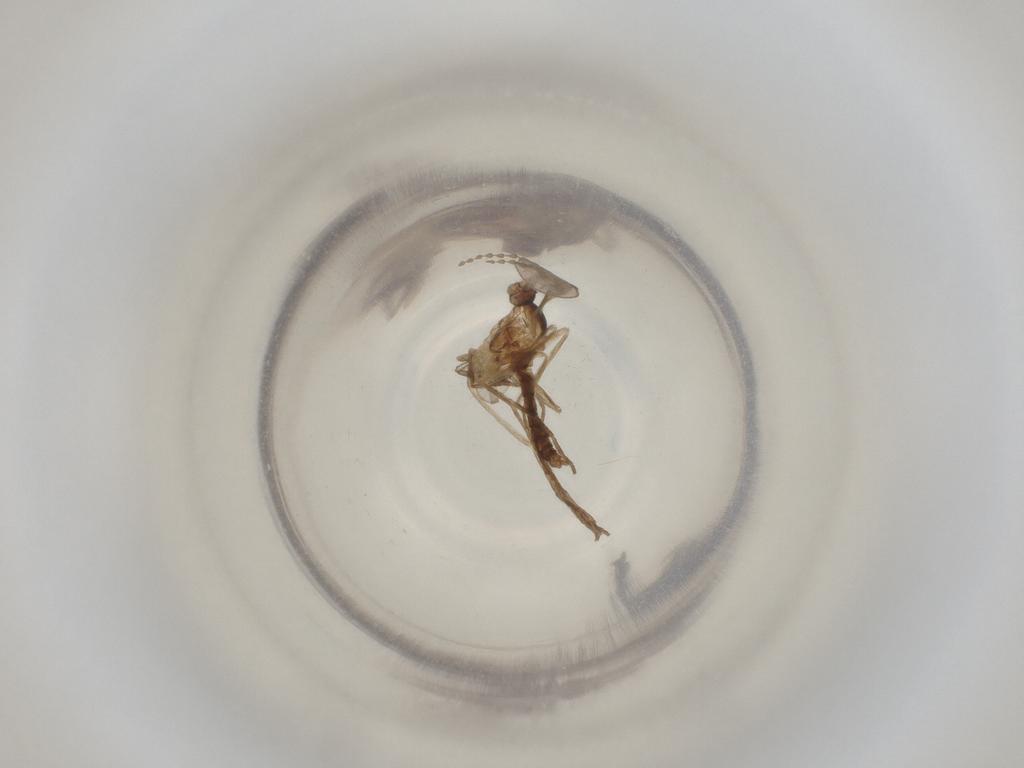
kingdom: Animalia
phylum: Arthropoda
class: Insecta
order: Diptera
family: Cecidomyiidae
